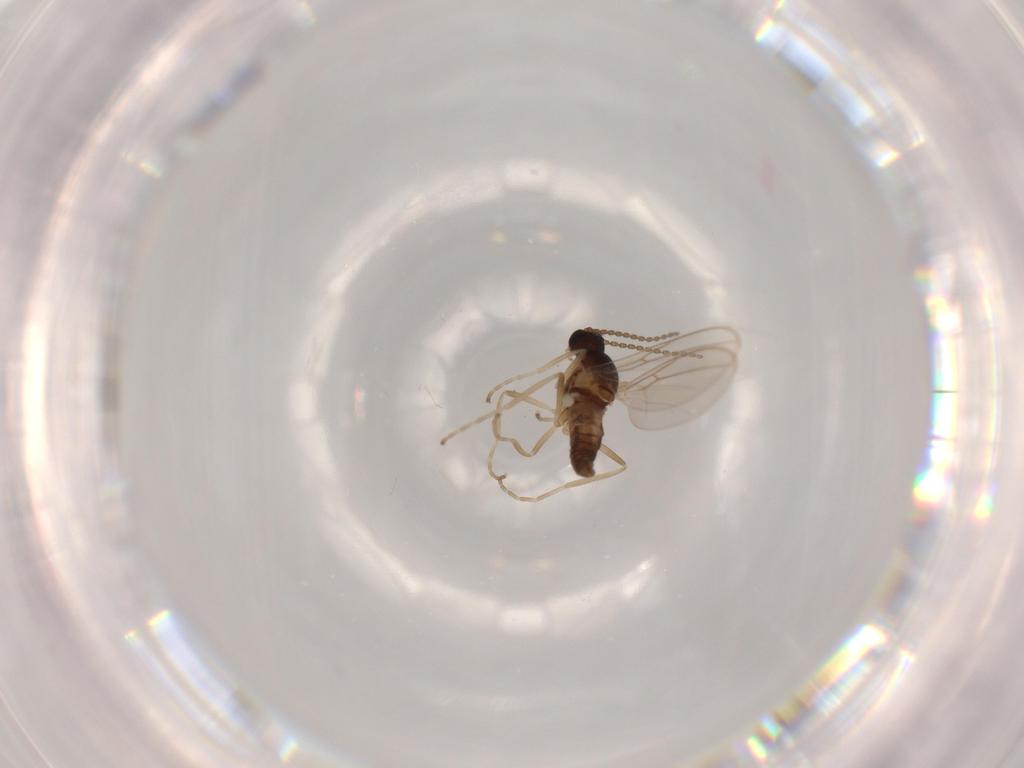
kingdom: Animalia
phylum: Arthropoda
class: Insecta
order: Diptera
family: Cecidomyiidae
